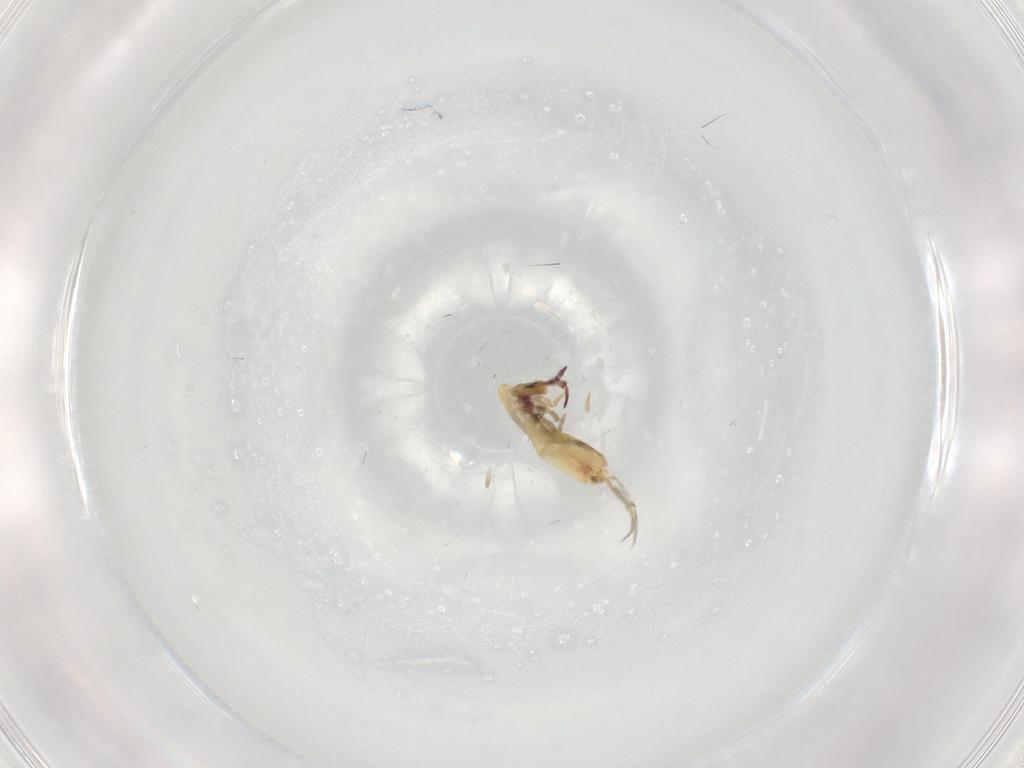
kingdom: Animalia
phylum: Arthropoda
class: Collembola
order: Entomobryomorpha
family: Entomobryidae
